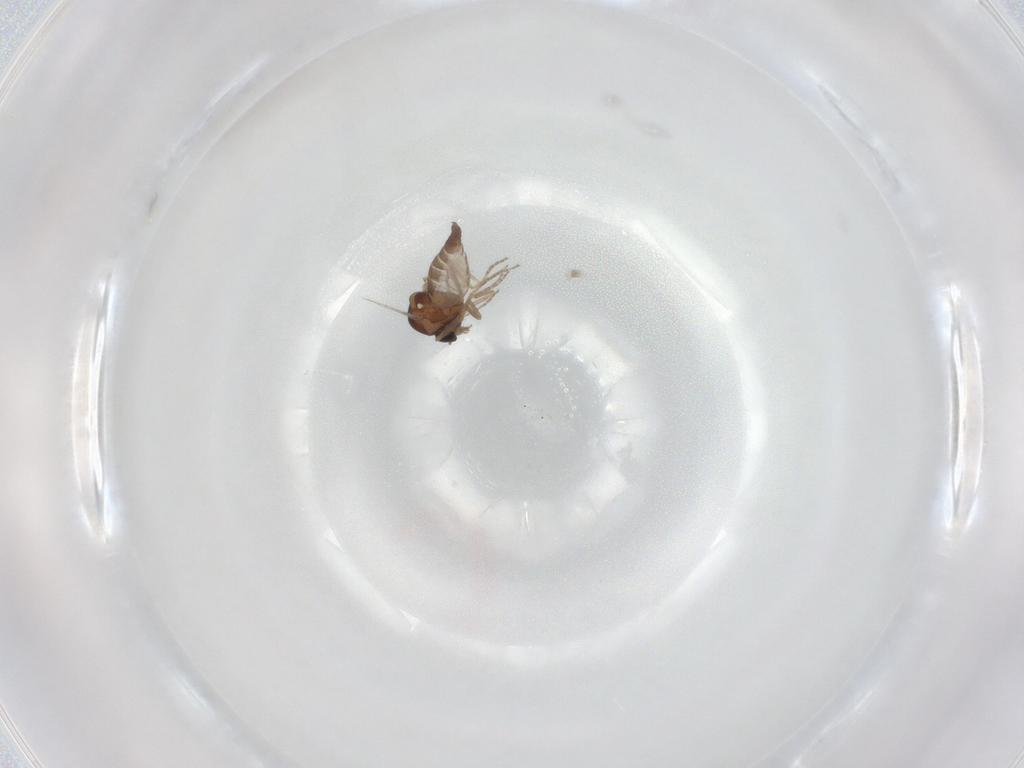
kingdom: Animalia
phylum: Arthropoda
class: Insecta
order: Diptera
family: Ceratopogonidae
